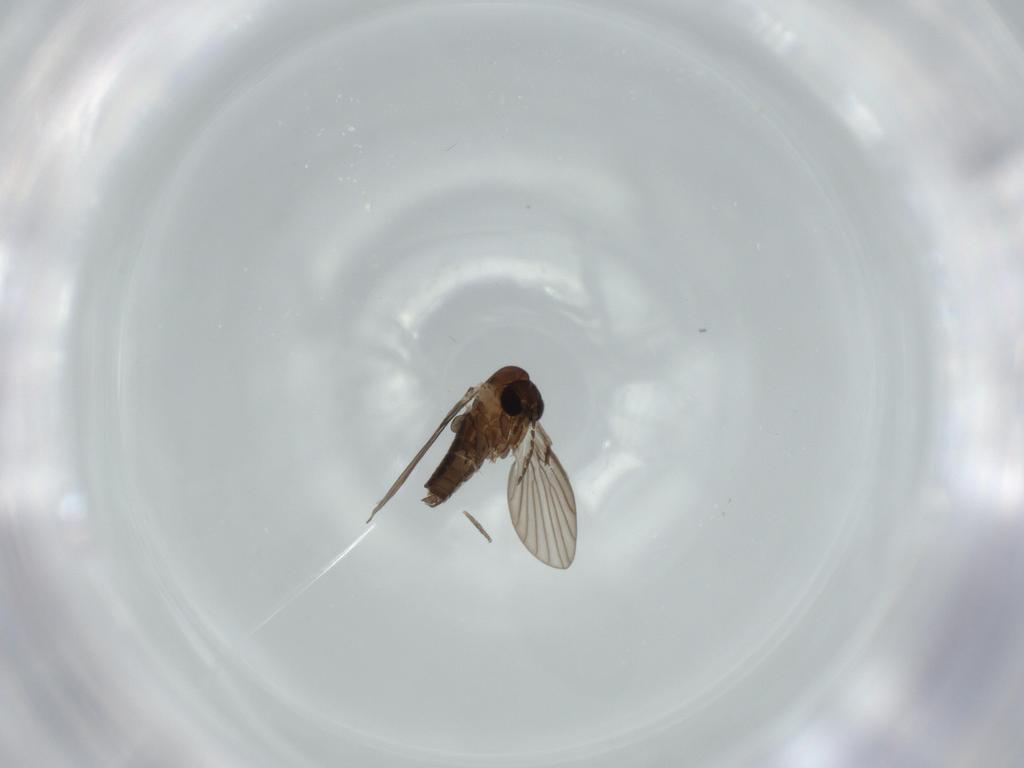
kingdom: Animalia
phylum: Arthropoda
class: Insecta
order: Diptera
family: Psychodidae
